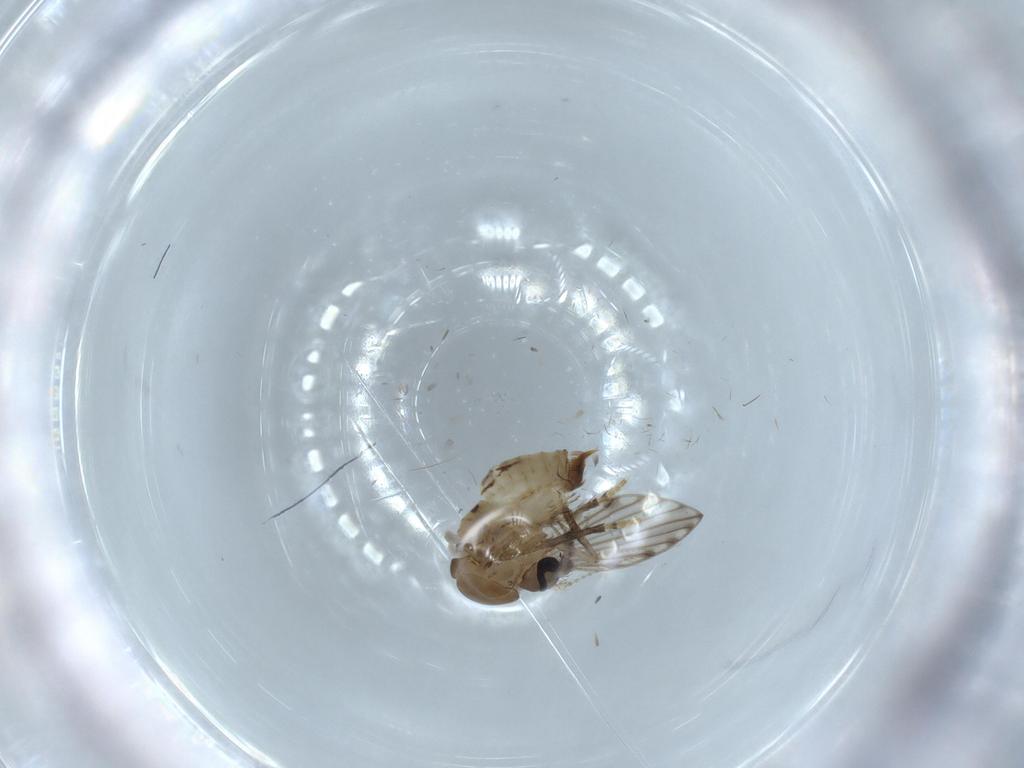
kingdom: Animalia
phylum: Arthropoda
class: Insecta
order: Diptera
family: Psychodidae
